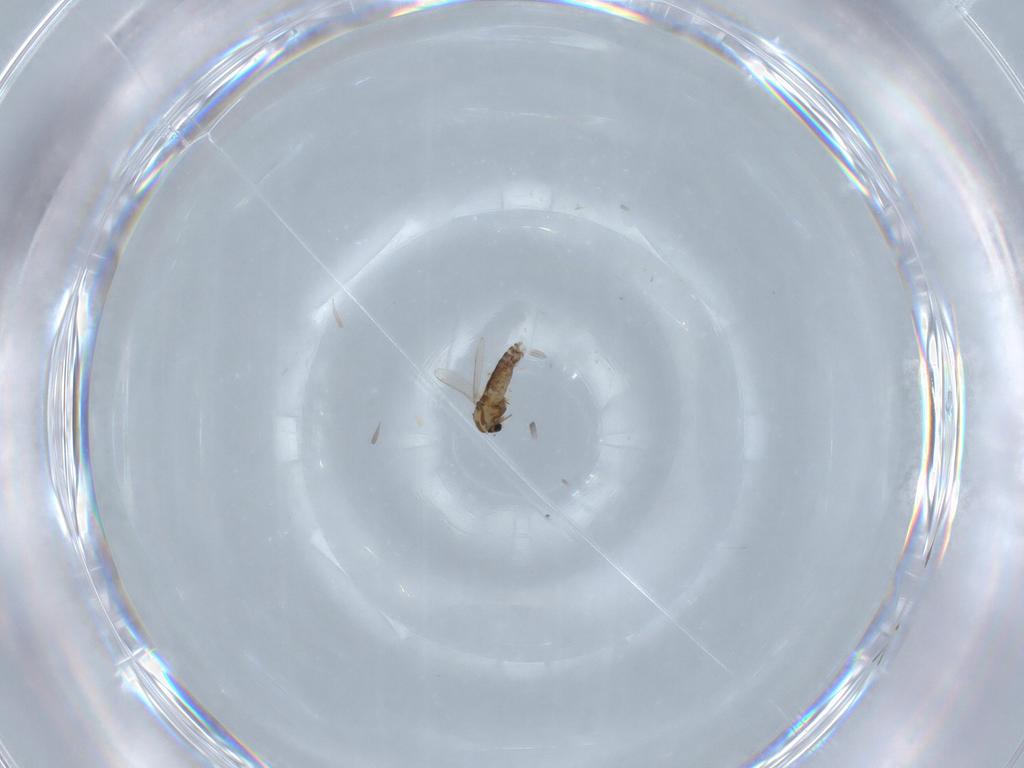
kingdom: Animalia
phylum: Arthropoda
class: Insecta
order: Diptera
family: Chironomidae
